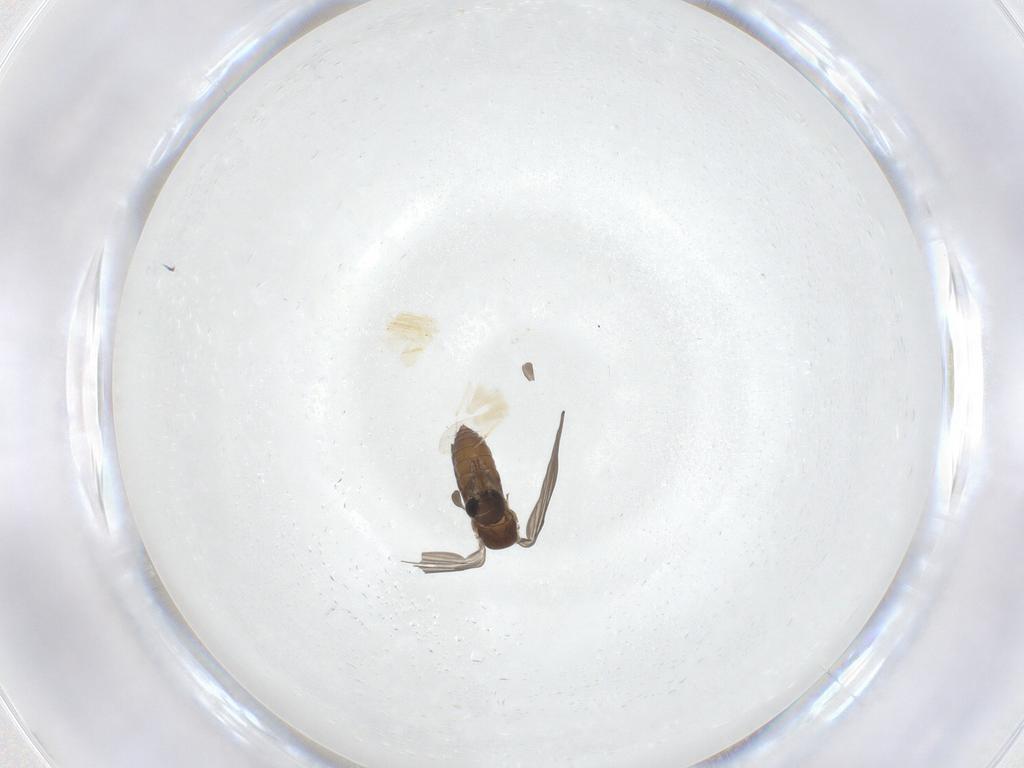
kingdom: Animalia
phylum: Arthropoda
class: Insecta
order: Diptera
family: Psychodidae
